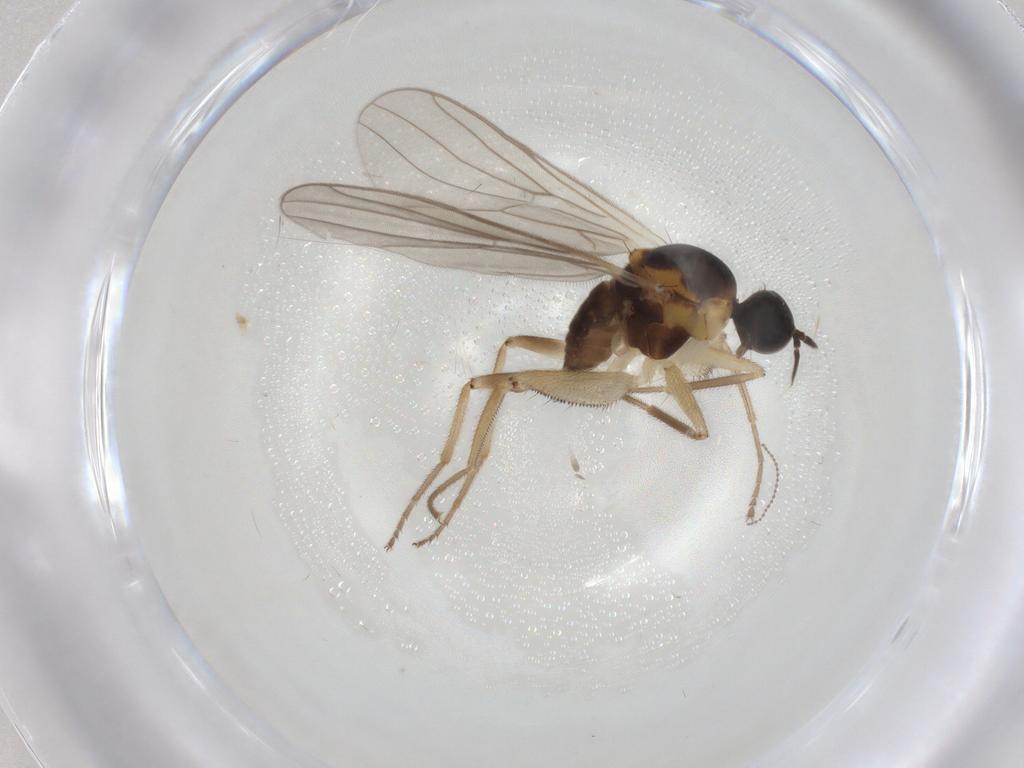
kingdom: Animalia
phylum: Arthropoda
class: Insecta
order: Diptera
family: Hybotidae
